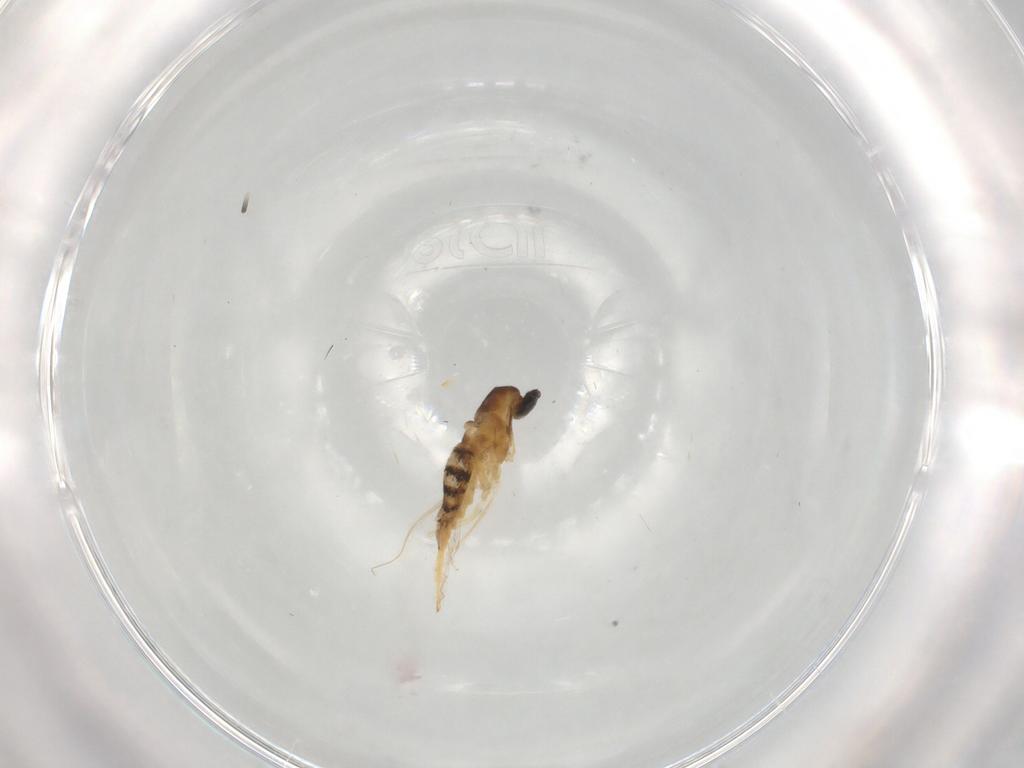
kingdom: Animalia
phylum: Arthropoda
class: Insecta
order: Diptera
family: Cecidomyiidae
